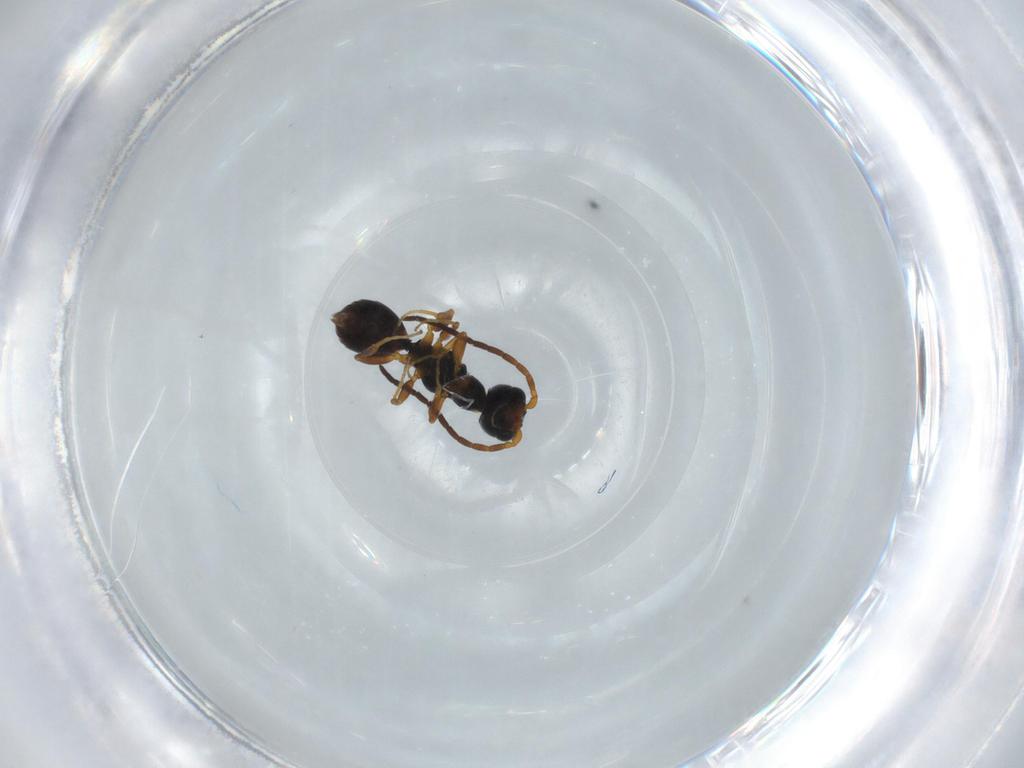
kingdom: Animalia
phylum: Arthropoda
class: Insecta
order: Hymenoptera
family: Bethylidae
